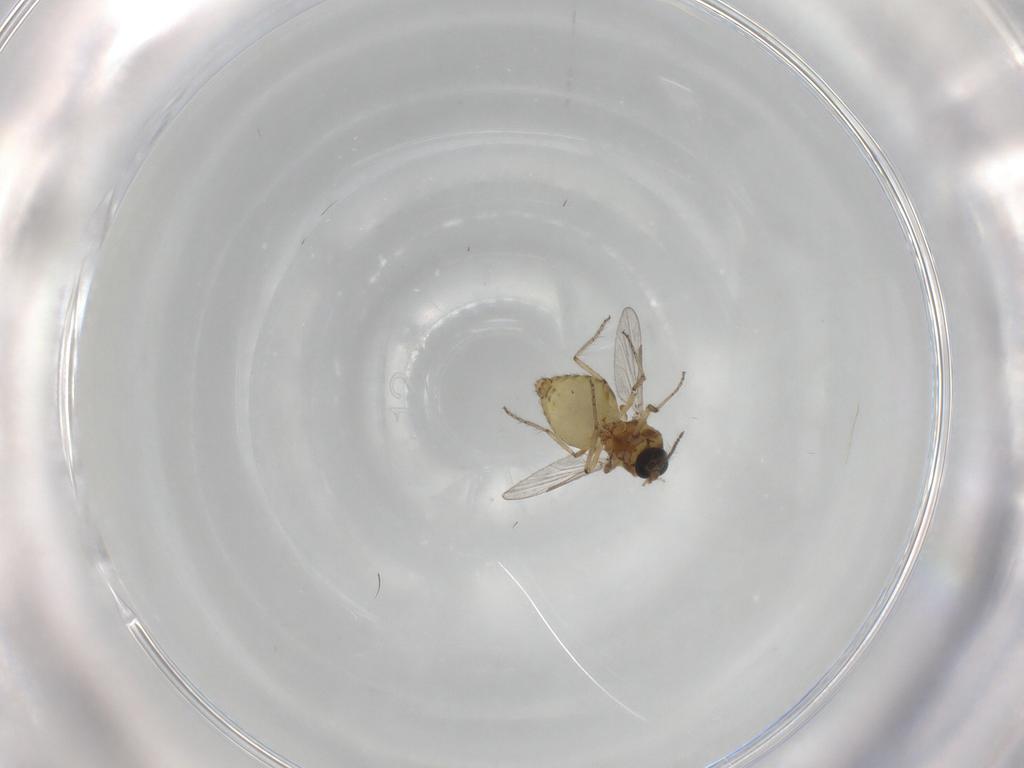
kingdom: Animalia
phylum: Arthropoda
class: Insecta
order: Diptera
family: Ceratopogonidae
